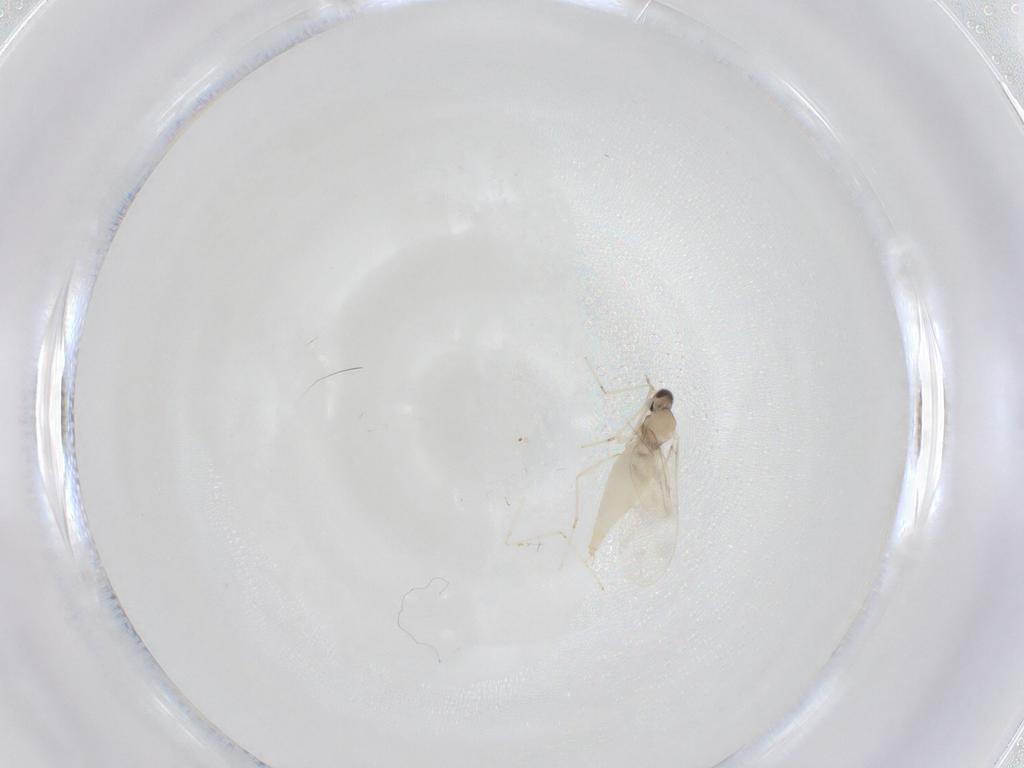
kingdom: Animalia
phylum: Arthropoda
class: Insecta
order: Diptera
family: Cecidomyiidae
